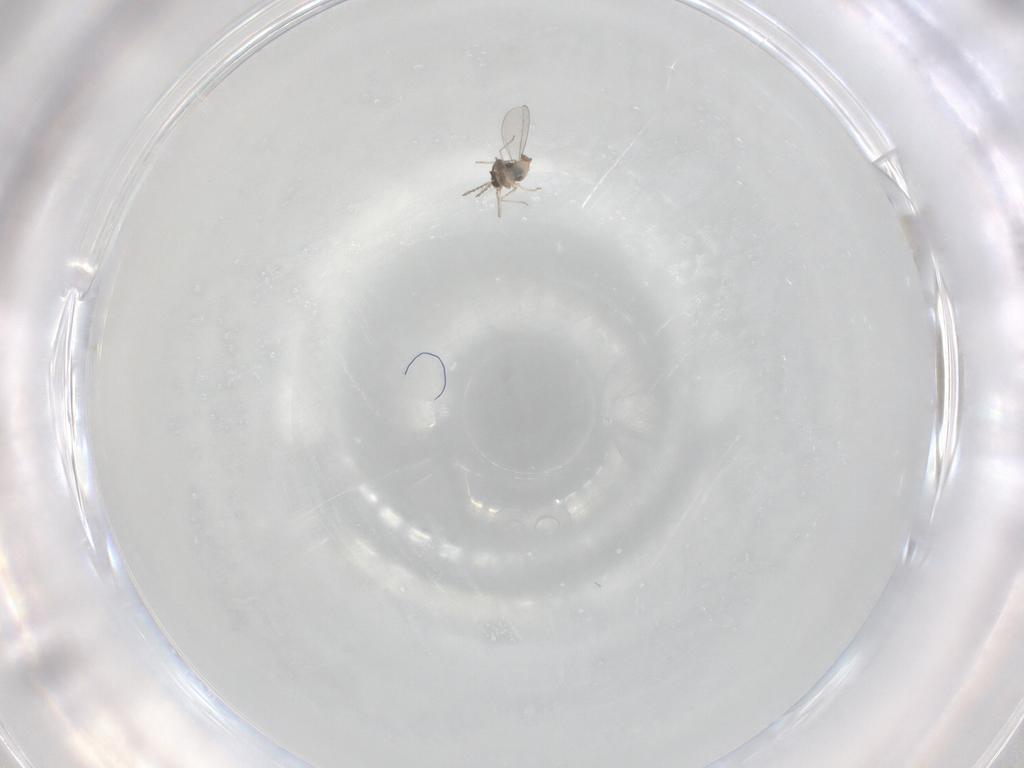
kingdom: Animalia
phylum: Arthropoda
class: Insecta
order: Diptera
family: Cecidomyiidae
